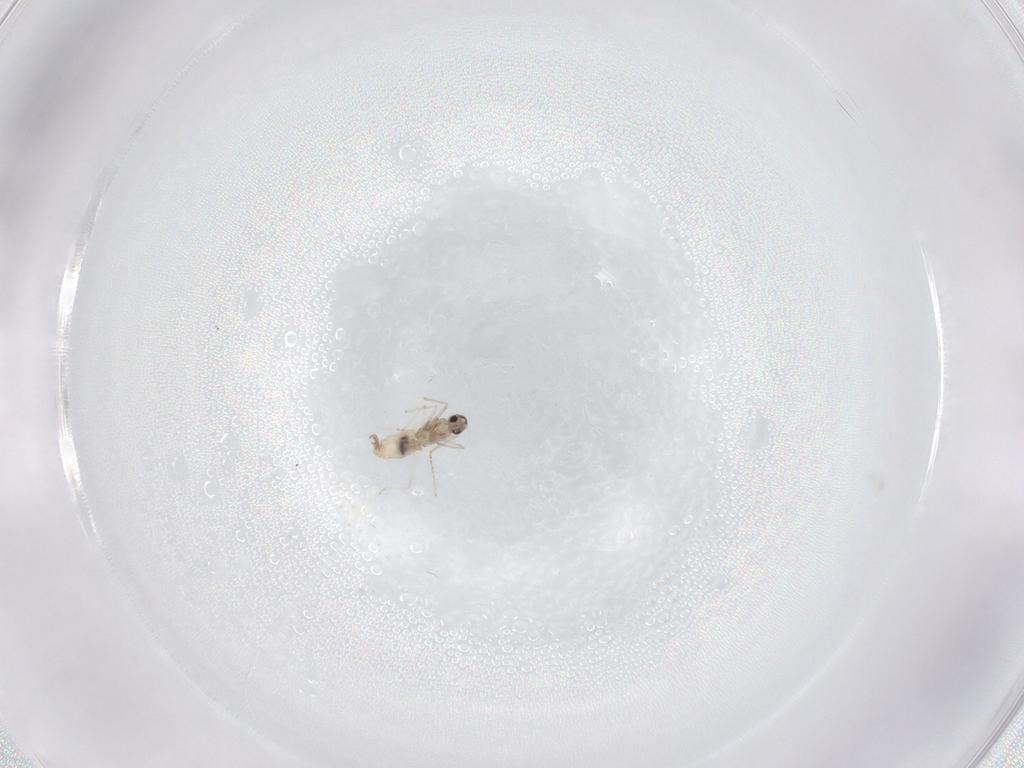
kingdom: Animalia
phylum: Arthropoda
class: Insecta
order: Diptera
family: Cecidomyiidae
